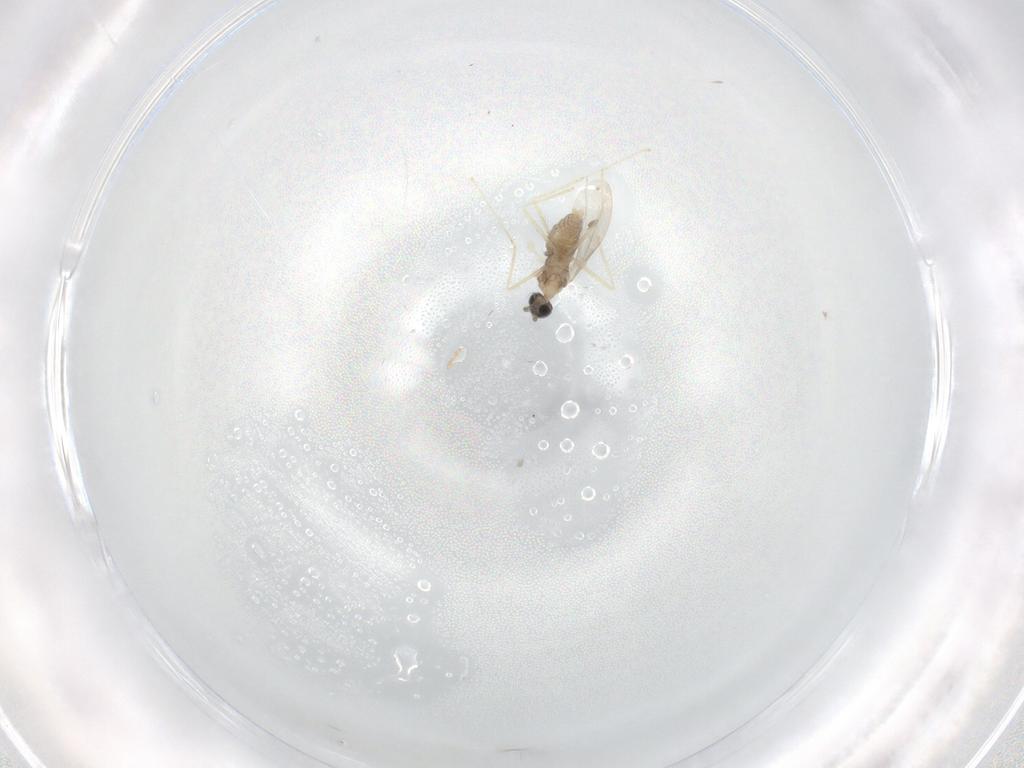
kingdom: Animalia
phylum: Arthropoda
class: Insecta
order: Diptera
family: Cecidomyiidae
